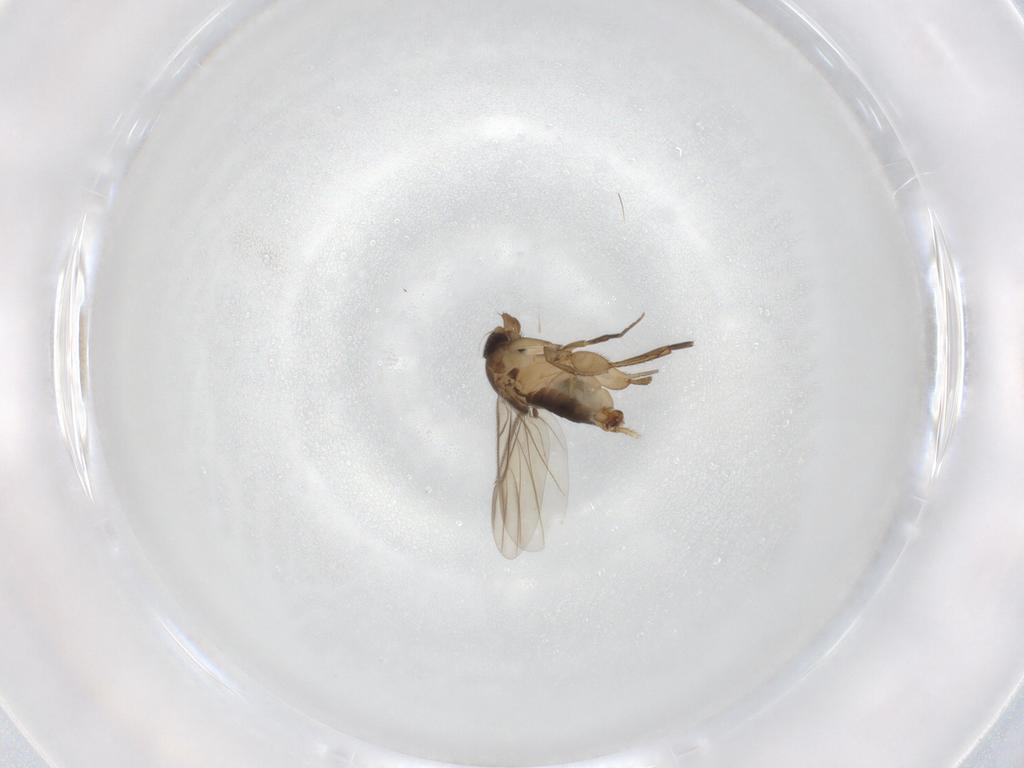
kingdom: Animalia
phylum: Arthropoda
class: Insecta
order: Diptera
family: Phoridae
